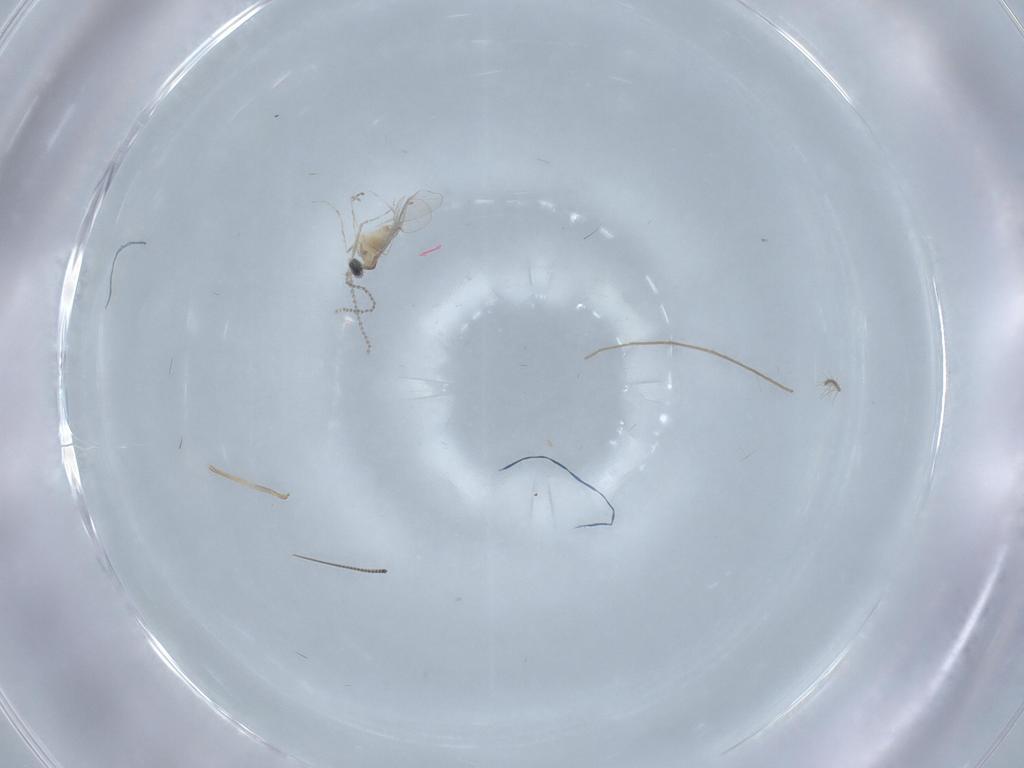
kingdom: Animalia
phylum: Arthropoda
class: Insecta
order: Diptera
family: Cecidomyiidae
